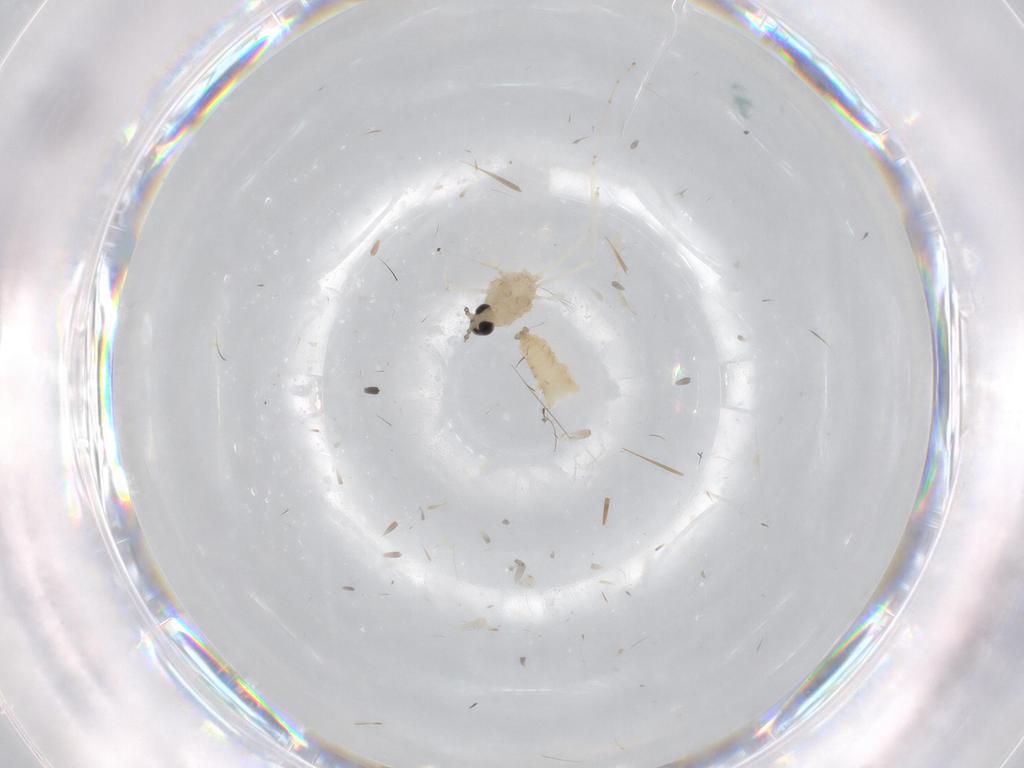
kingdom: Animalia
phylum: Arthropoda
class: Insecta
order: Diptera
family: Cecidomyiidae
